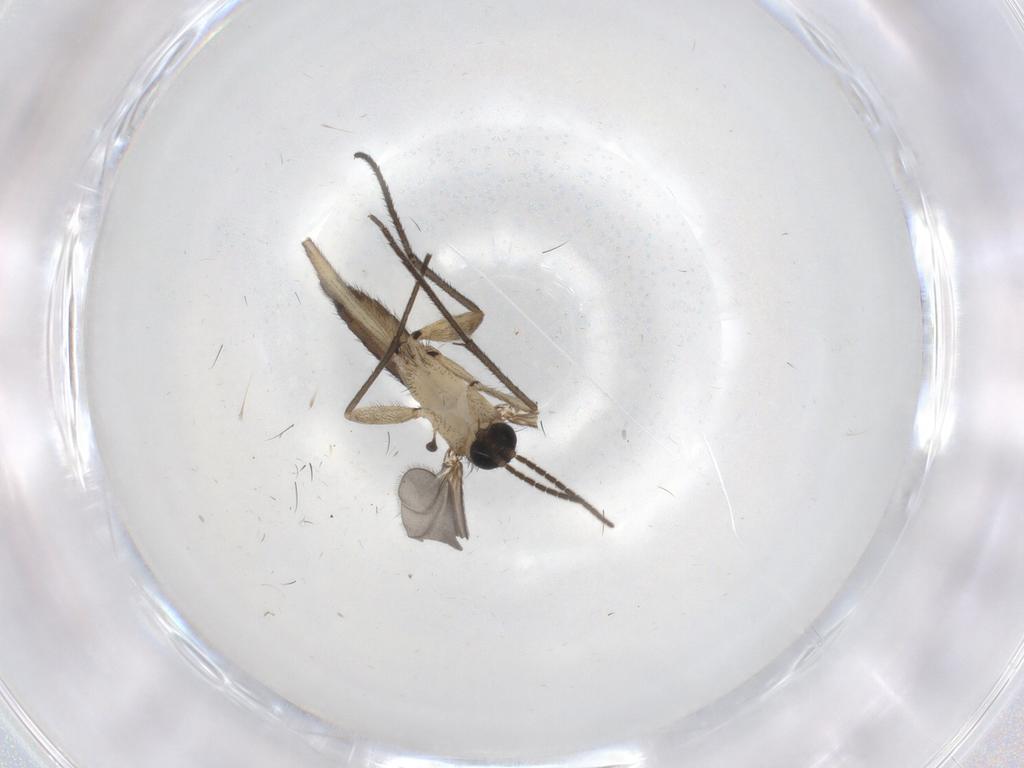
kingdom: Animalia
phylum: Arthropoda
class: Insecta
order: Diptera
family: Sciaridae
